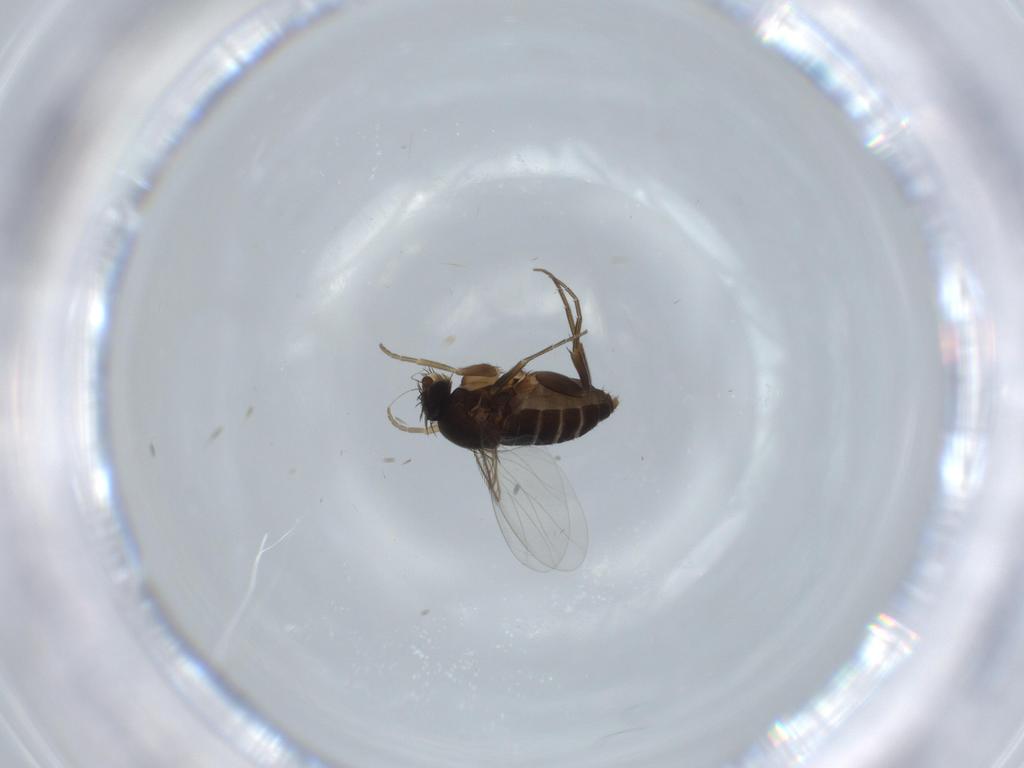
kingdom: Animalia
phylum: Arthropoda
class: Insecta
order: Diptera
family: Phoridae
